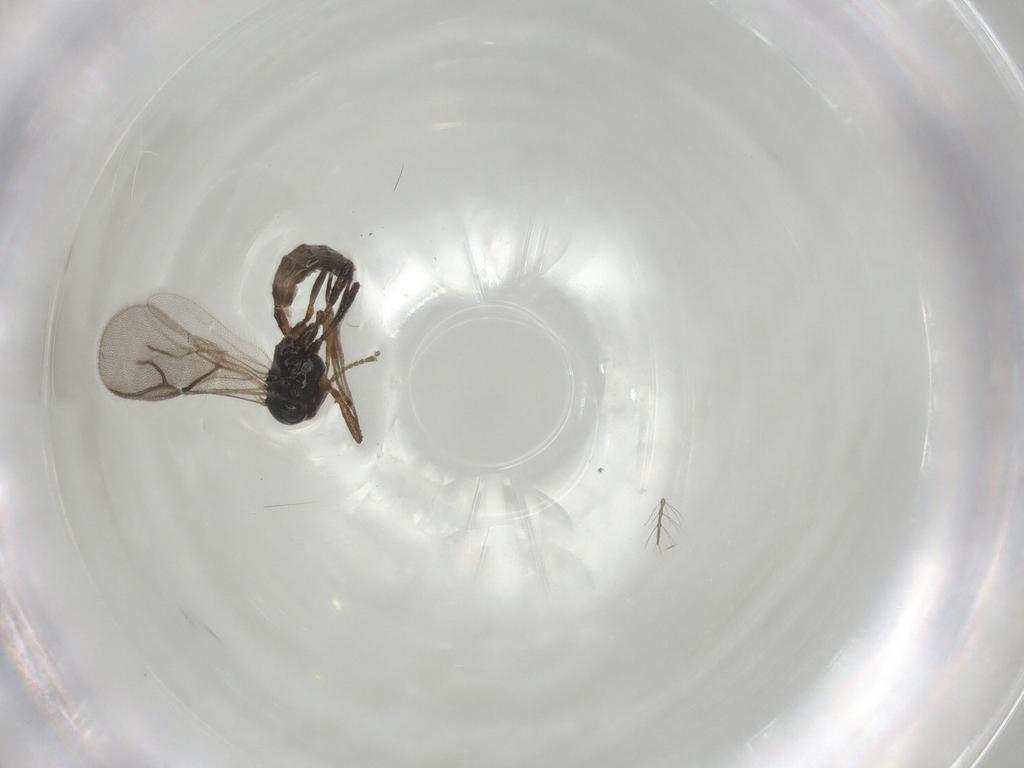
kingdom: Animalia
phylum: Arthropoda
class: Insecta
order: Hymenoptera
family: Braconidae
